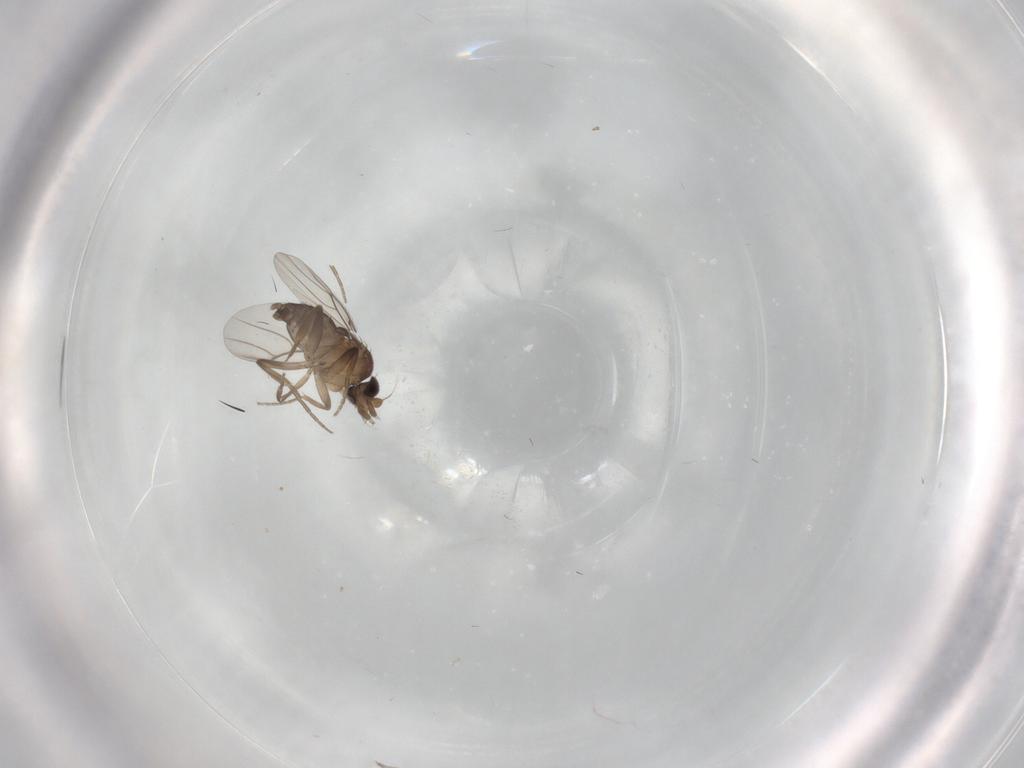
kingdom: Animalia
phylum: Arthropoda
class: Insecta
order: Diptera
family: Phoridae
